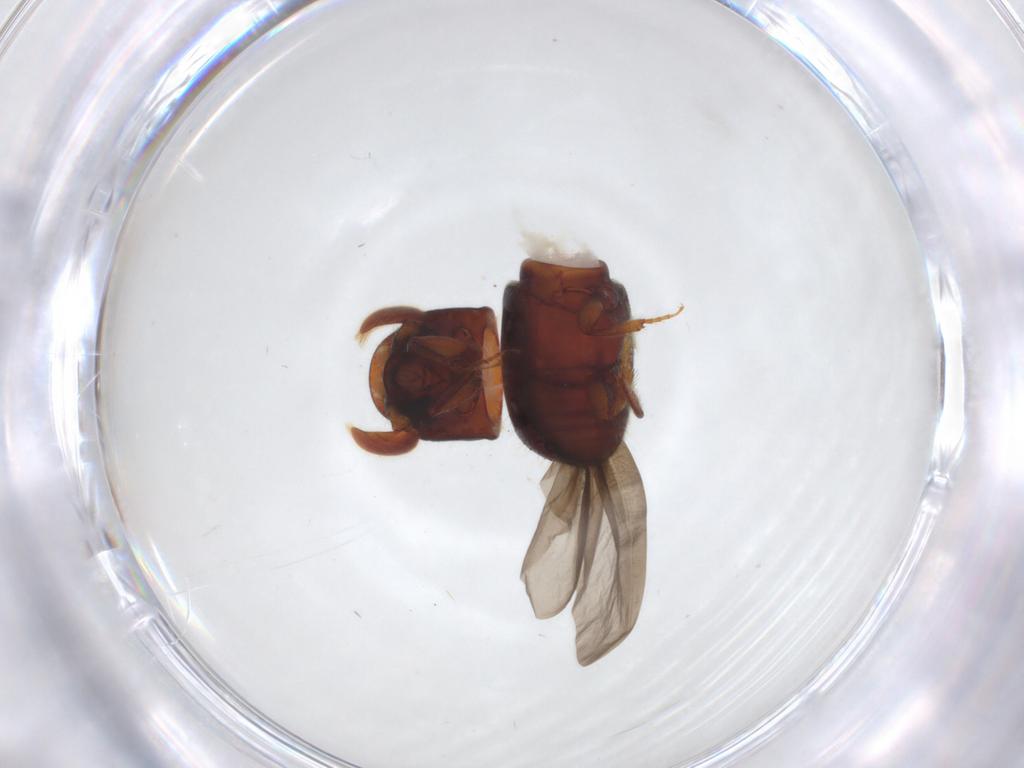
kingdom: Animalia
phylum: Arthropoda
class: Insecta
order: Coleoptera
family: Curculionidae
